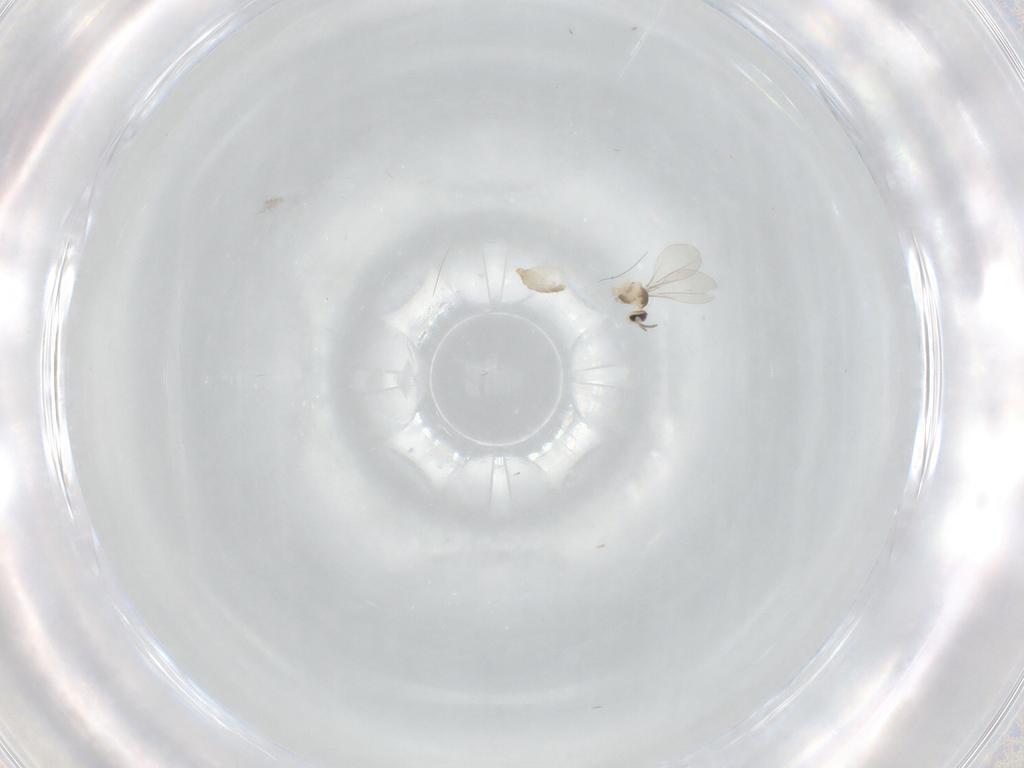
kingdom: Animalia
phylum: Arthropoda
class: Insecta
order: Diptera
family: Cecidomyiidae
